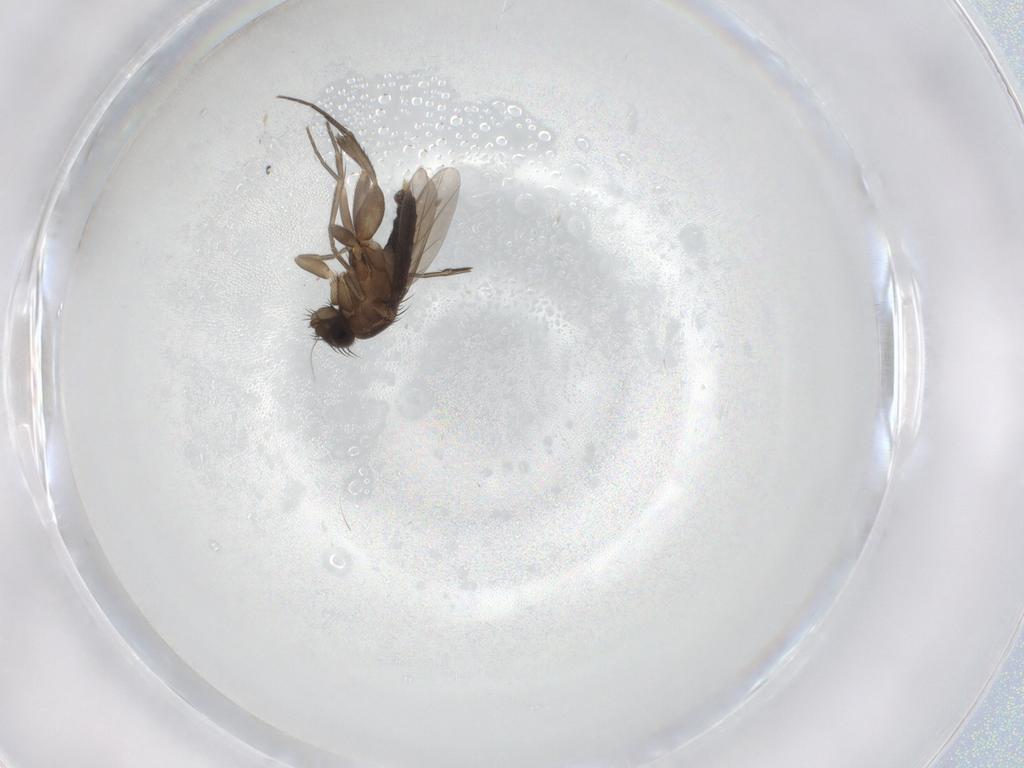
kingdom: Animalia
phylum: Arthropoda
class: Insecta
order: Diptera
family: Phoridae
